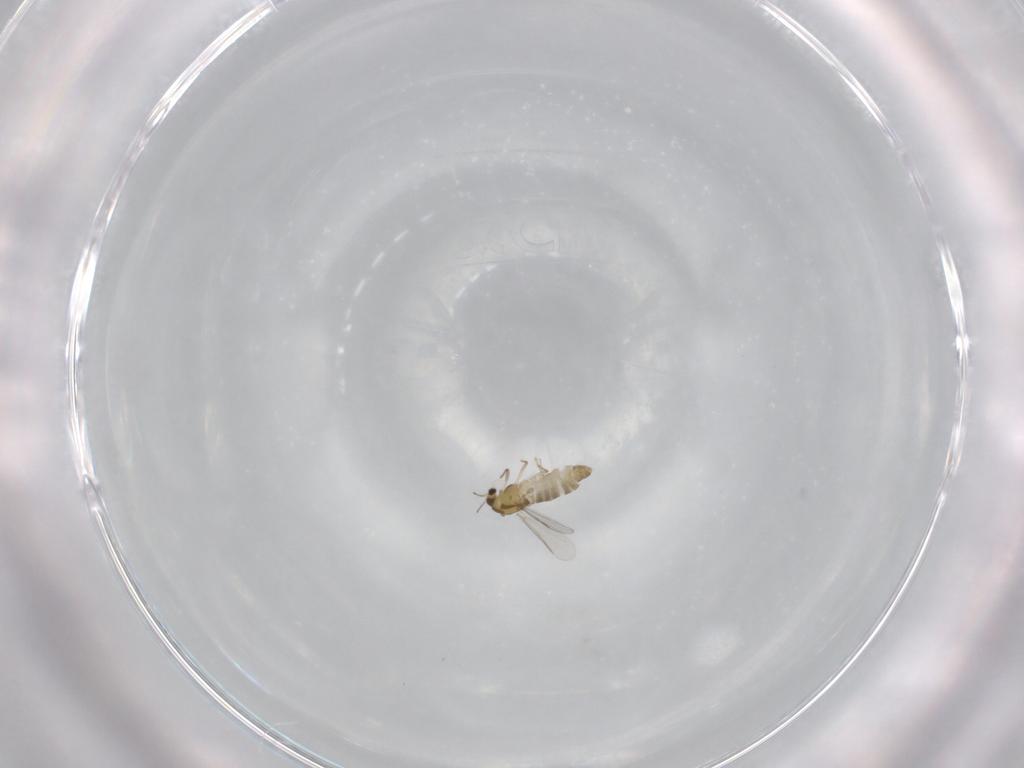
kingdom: Animalia
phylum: Arthropoda
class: Insecta
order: Diptera
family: Ceratopogonidae
